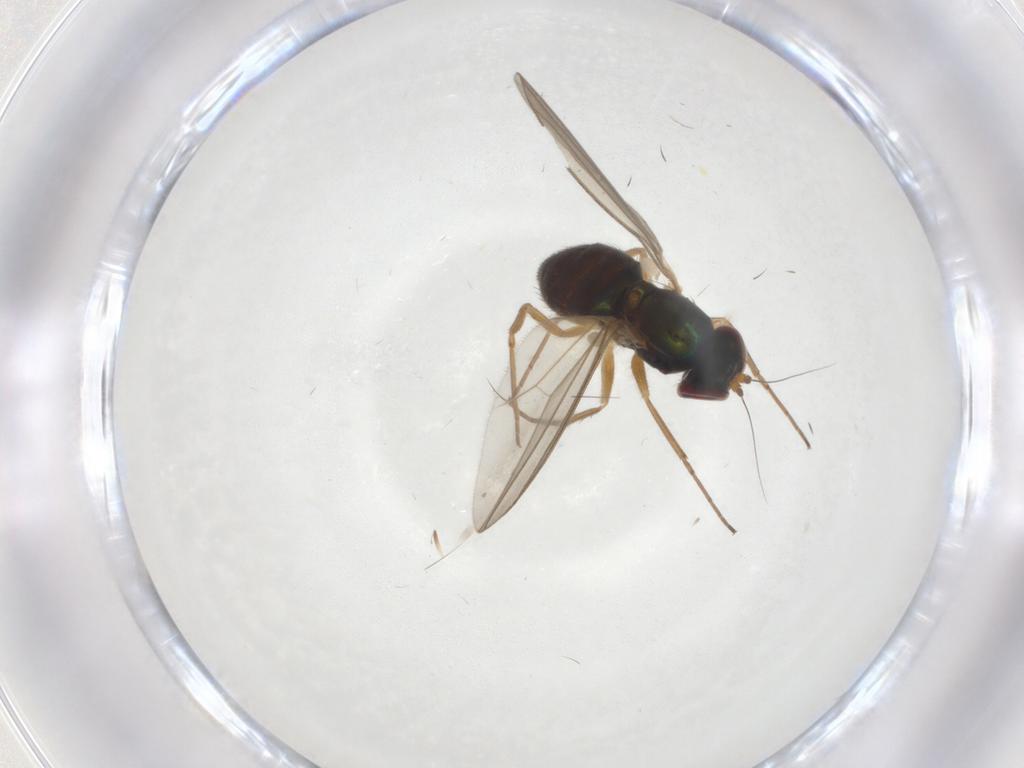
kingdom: Animalia
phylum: Arthropoda
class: Insecta
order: Diptera
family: Dolichopodidae
